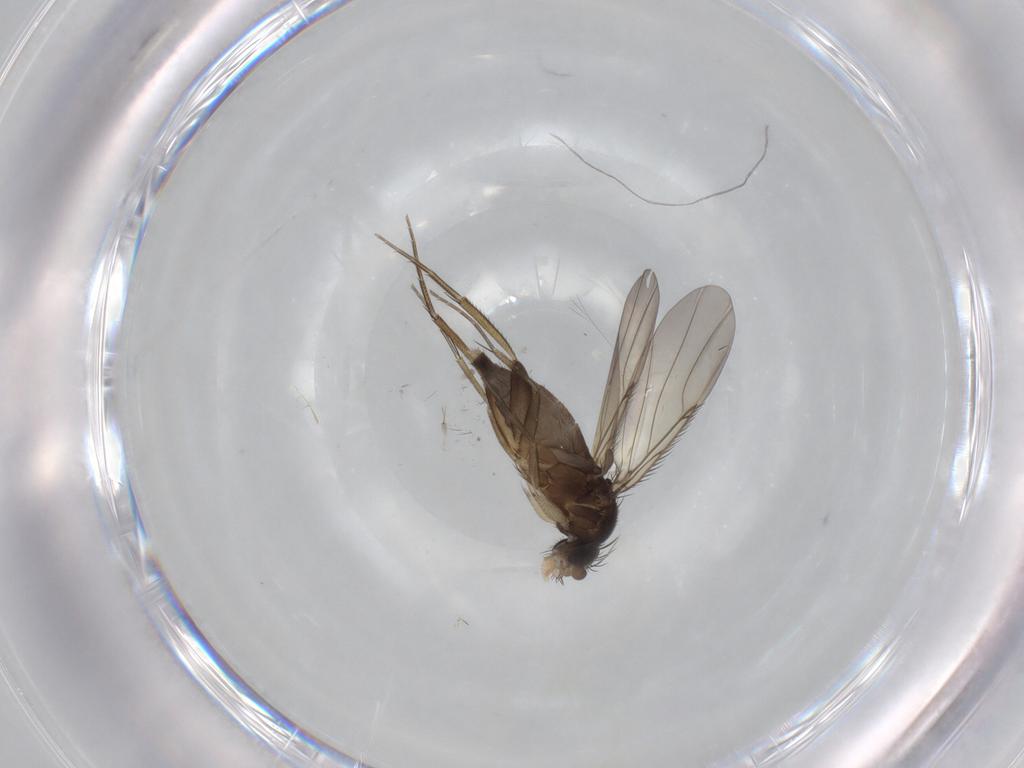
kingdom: Animalia
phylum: Arthropoda
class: Insecta
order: Diptera
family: Phoridae
